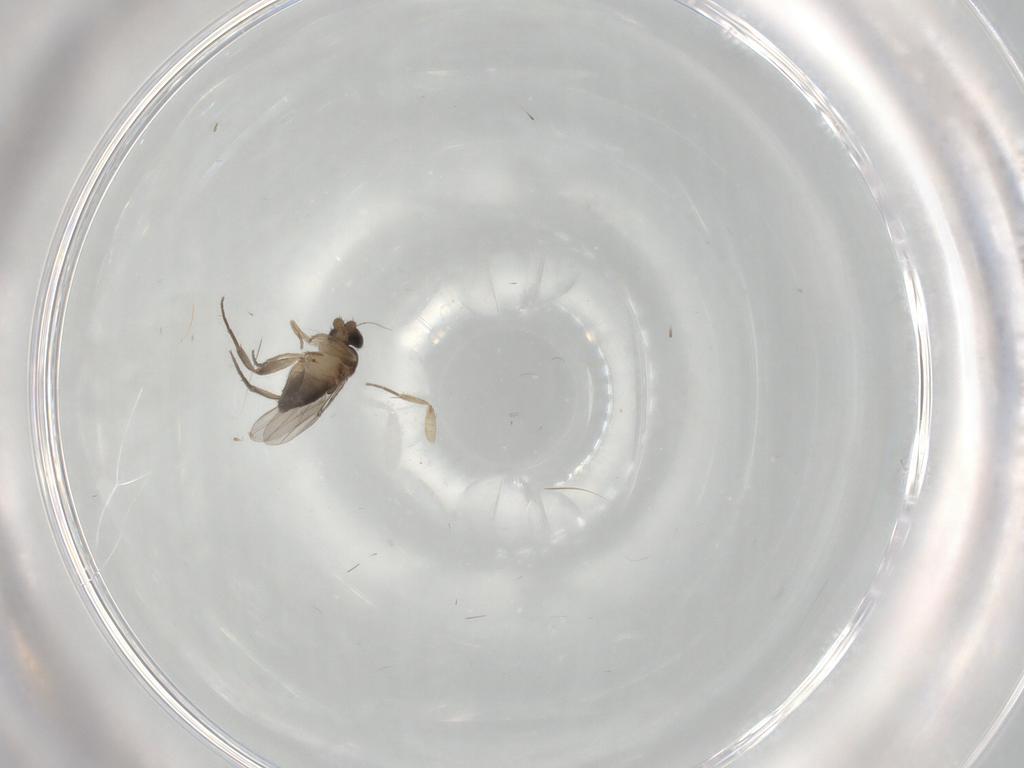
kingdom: Animalia
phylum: Arthropoda
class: Insecta
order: Diptera
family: Phoridae
